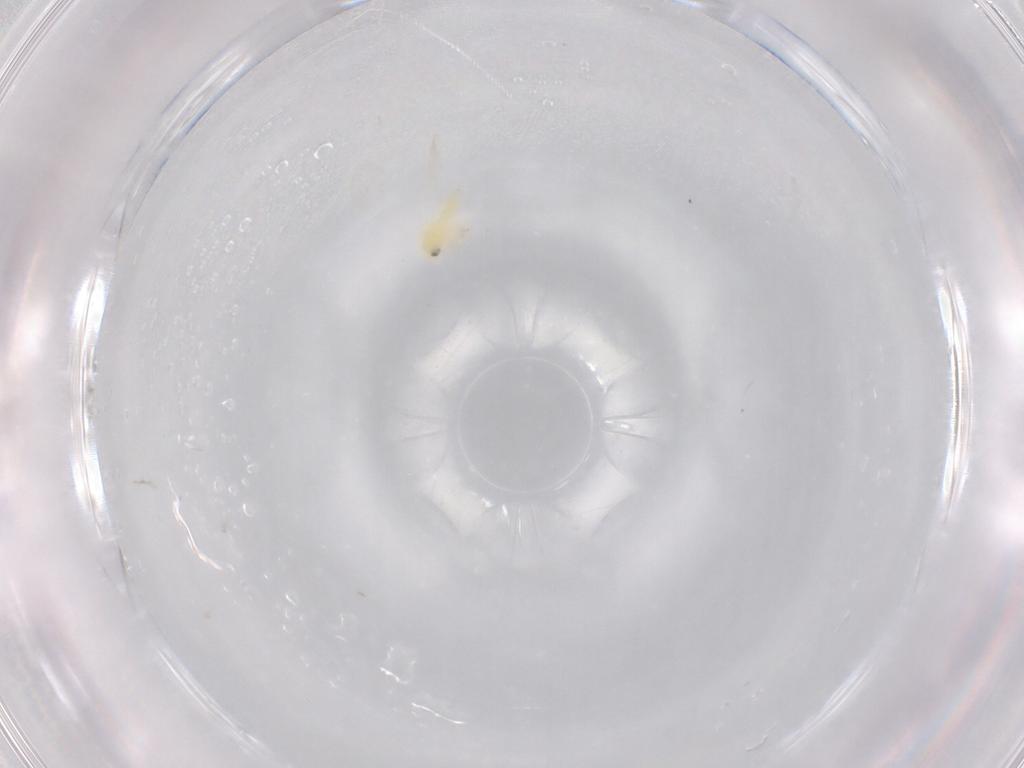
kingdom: Animalia
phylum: Arthropoda
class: Insecta
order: Hemiptera
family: Aleyrodidae
